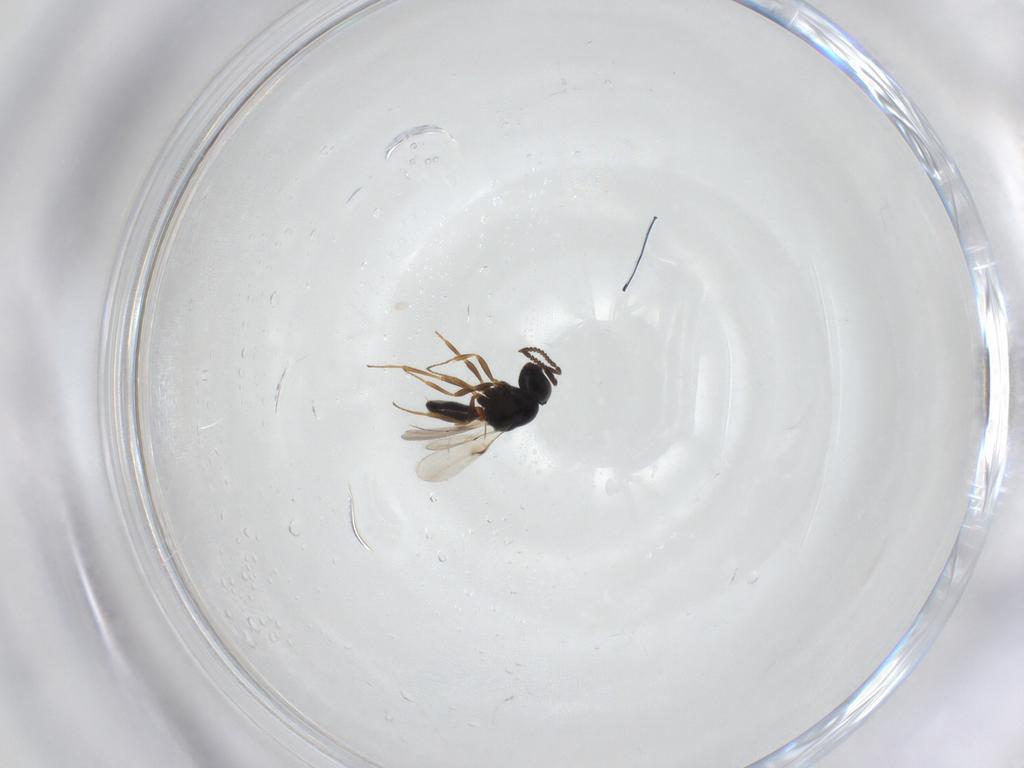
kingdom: Animalia
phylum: Arthropoda
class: Arachnida
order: Araneae
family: Pholcidae
